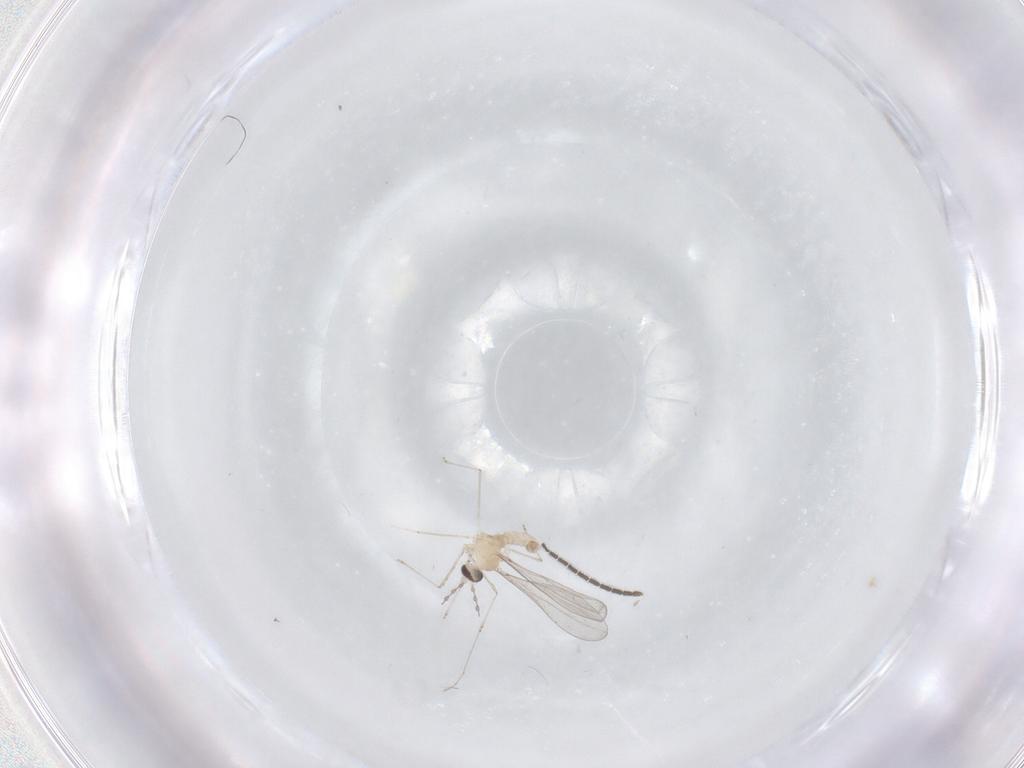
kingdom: Animalia
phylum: Arthropoda
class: Insecta
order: Diptera
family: Cecidomyiidae
